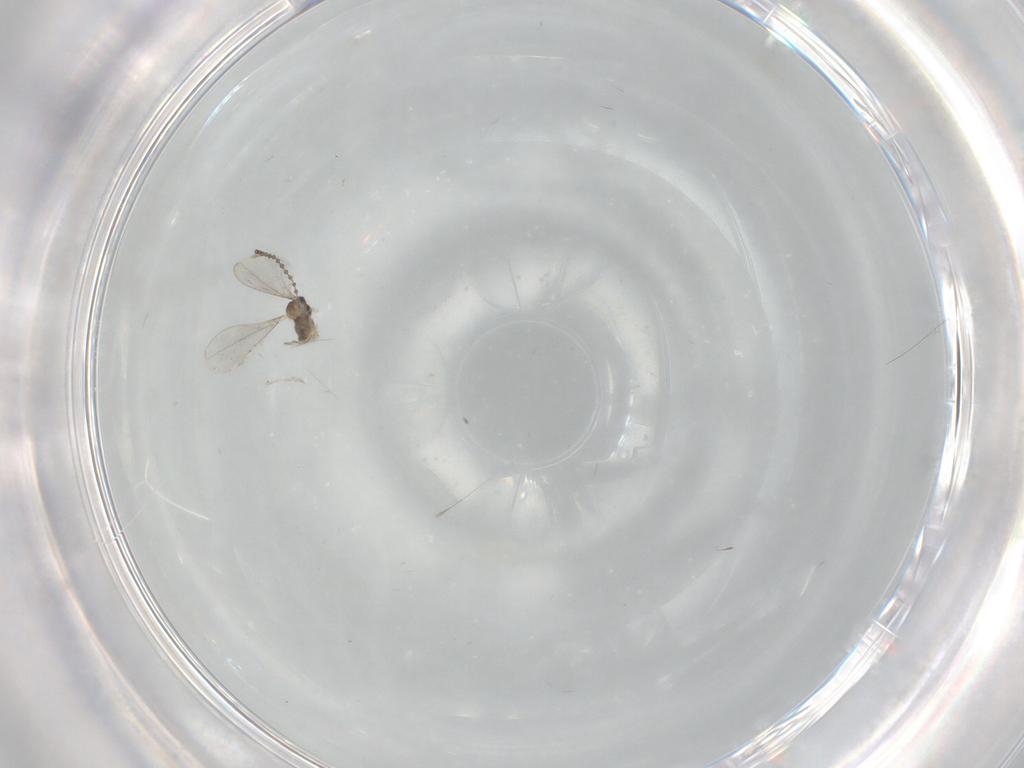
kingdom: Animalia
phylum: Arthropoda
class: Insecta
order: Diptera
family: Cecidomyiidae
